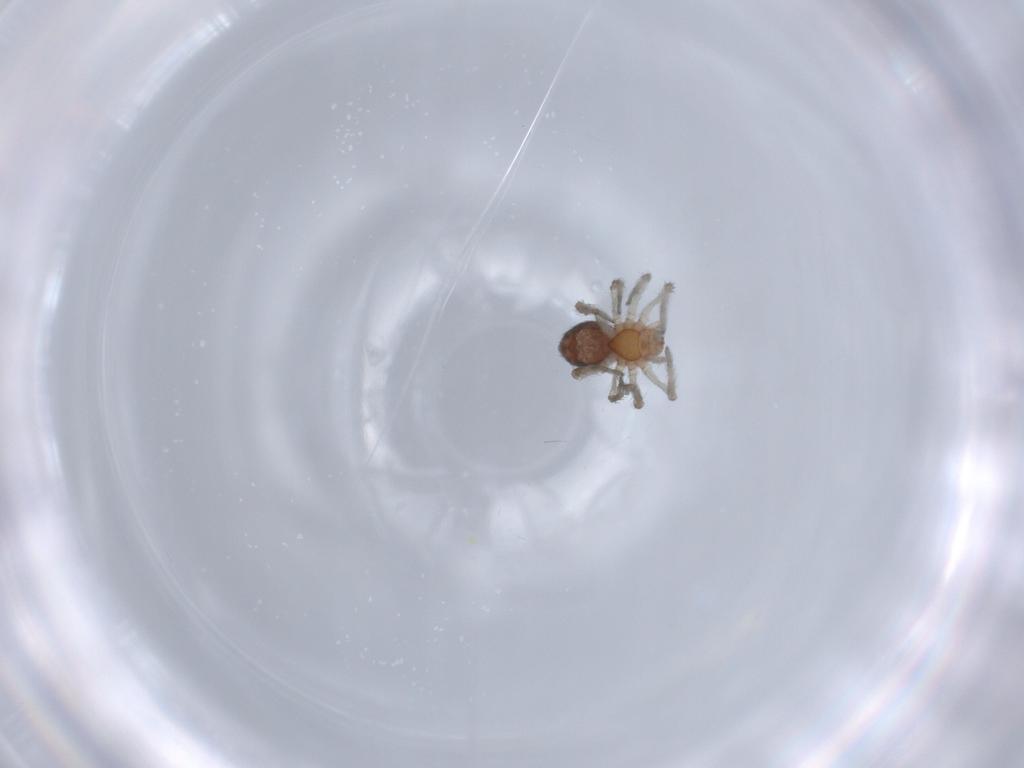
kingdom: Animalia
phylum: Arthropoda
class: Arachnida
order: Araneae
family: Dictynidae
